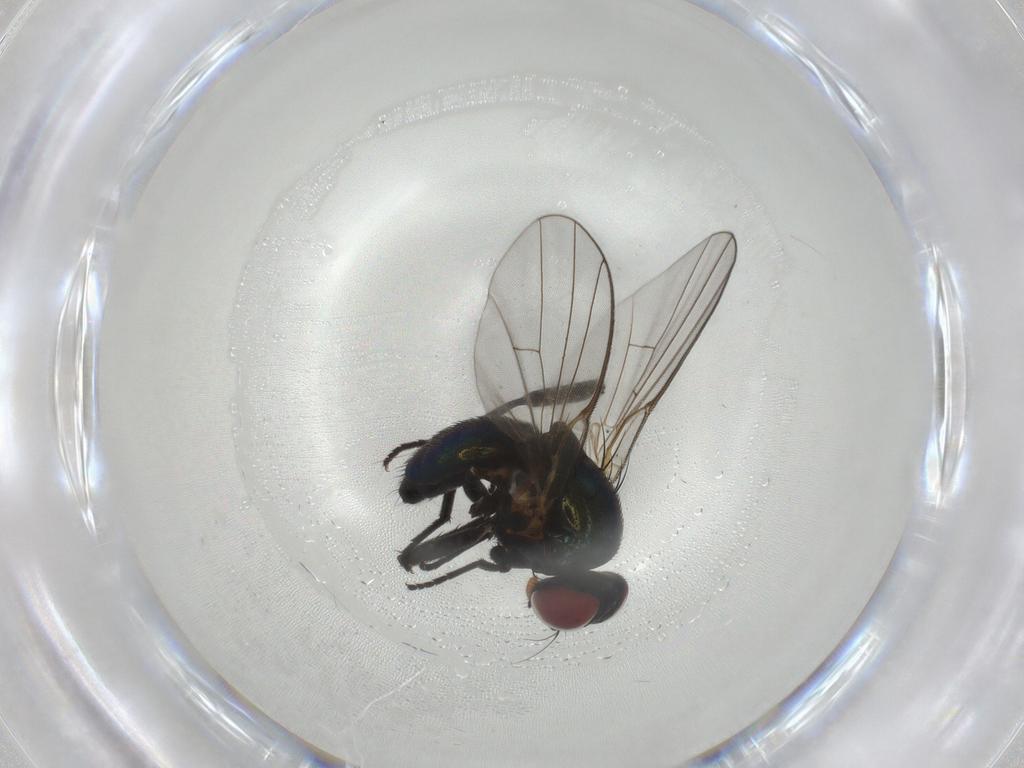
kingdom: Animalia
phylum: Arthropoda
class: Insecta
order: Diptera
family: Agromyzidae
